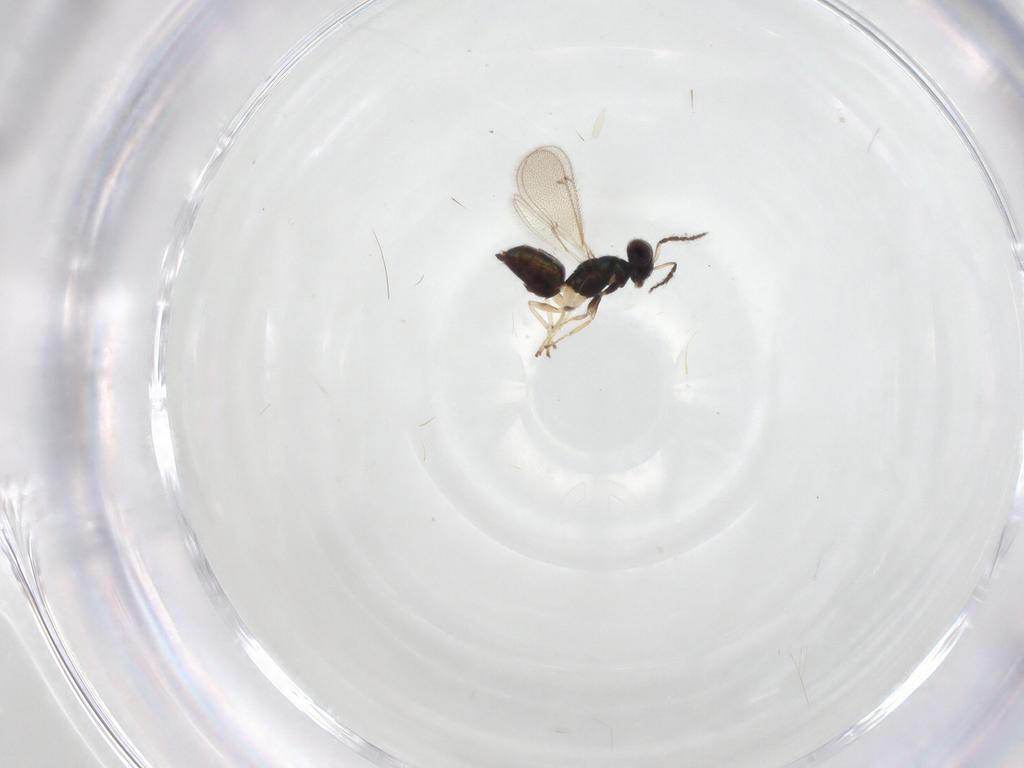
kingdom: Animalia
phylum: Arthropoda
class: Insecta
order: Hymenoptera
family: Eulophidae
